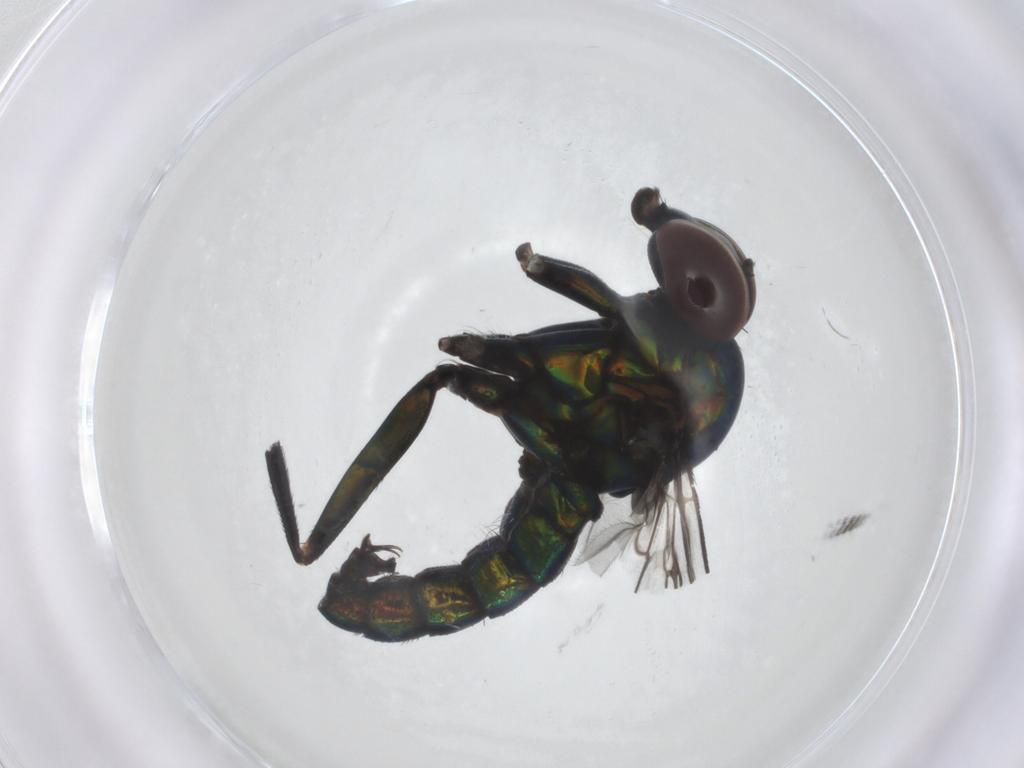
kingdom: Animalia
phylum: Arthropoda
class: Insecta
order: Diptera
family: Dolichopodidae
